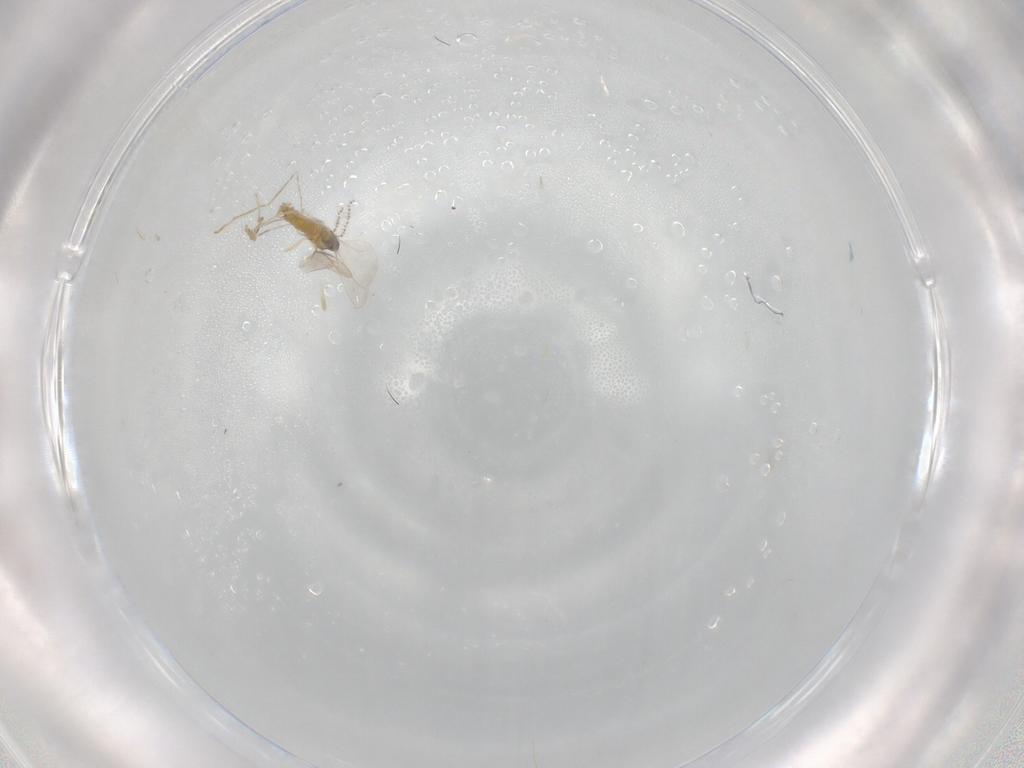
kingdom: Animalia
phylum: Arthropoda
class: Insecta
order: Diptera
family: Cecidomyiidae
